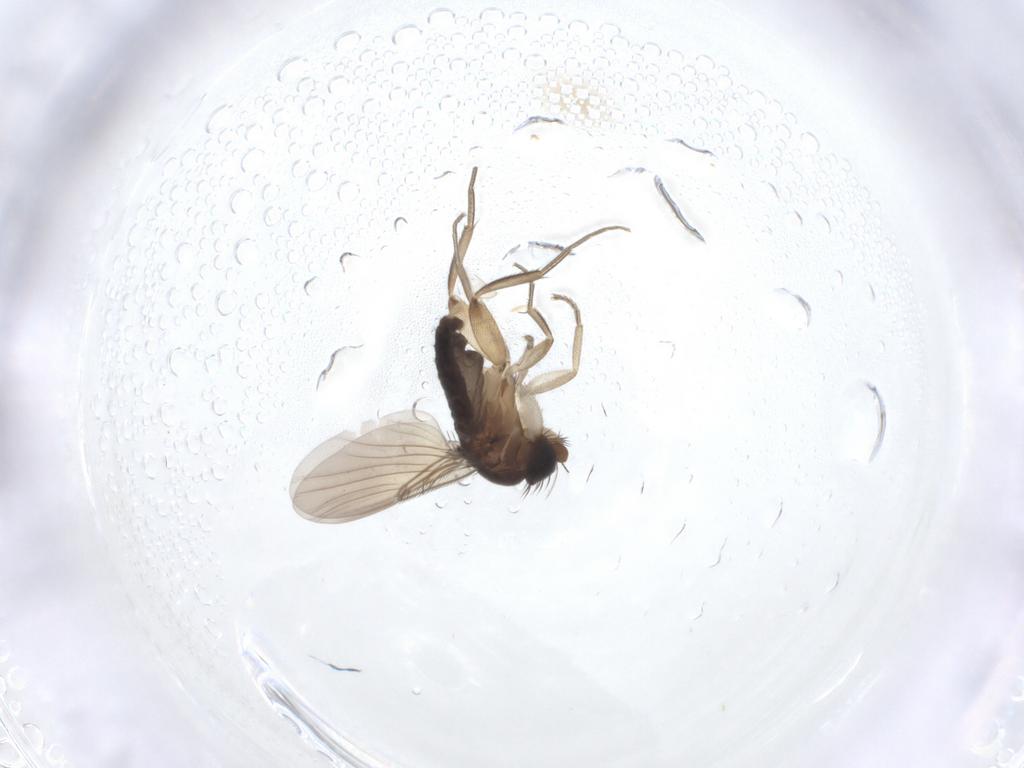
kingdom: Animalia
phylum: Arthropoda
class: Insecta
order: Diptera
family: Phoridae
